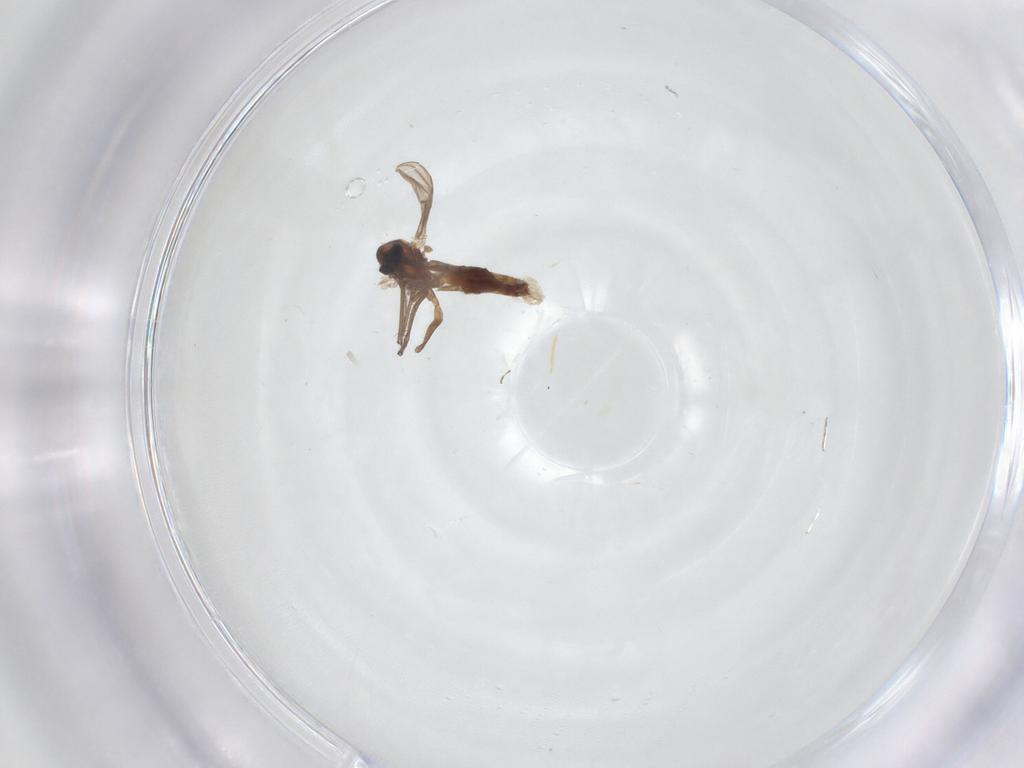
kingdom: Animalia
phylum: Arthropoda
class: Insecta
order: Diptera
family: Chironomidae
